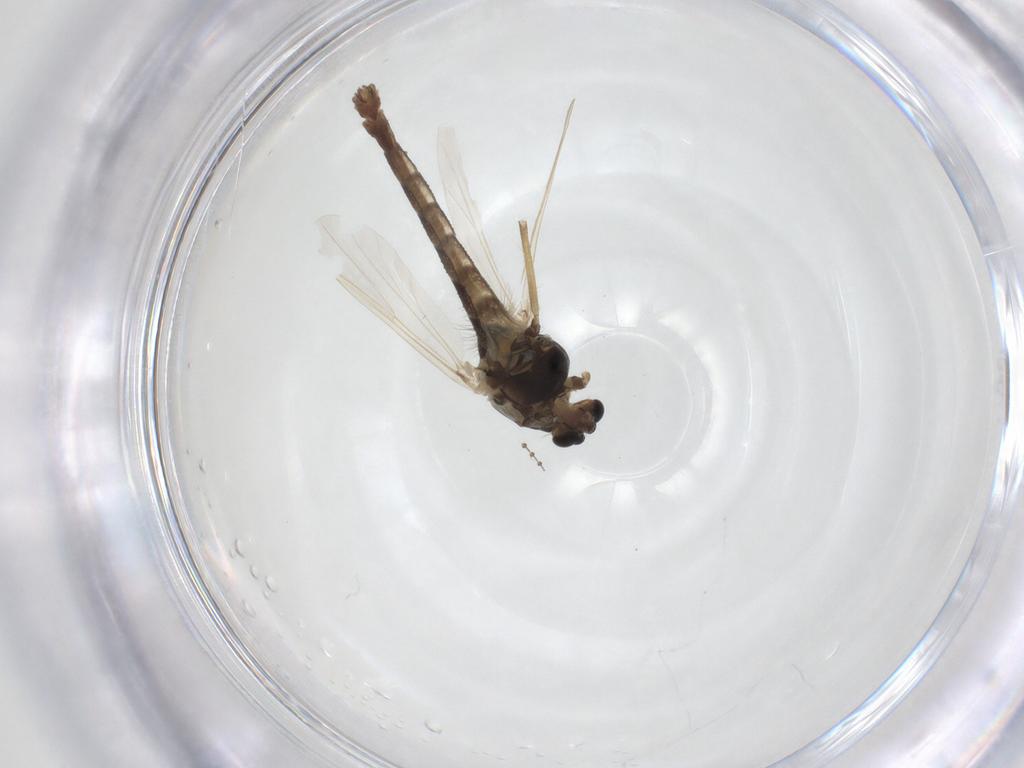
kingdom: Animalia
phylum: Arthropoda
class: Insecta
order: Diptera
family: Chironomidae
